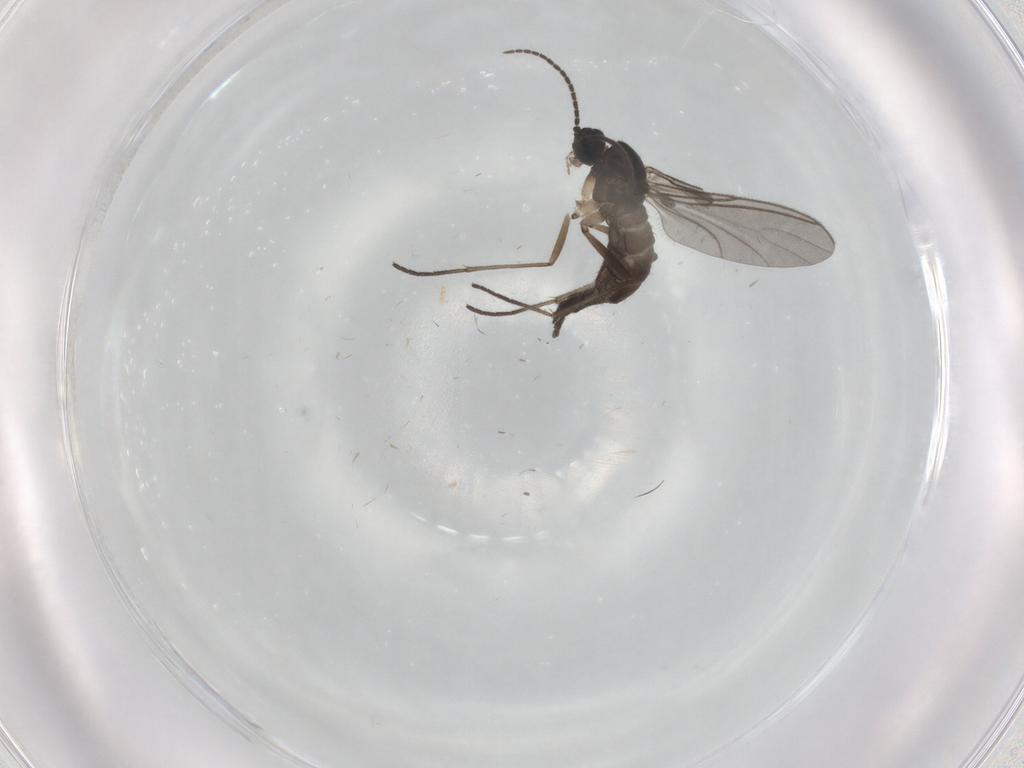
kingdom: Animalia
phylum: Arthropoda
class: Insecta
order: Diptera
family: Sciaridae
